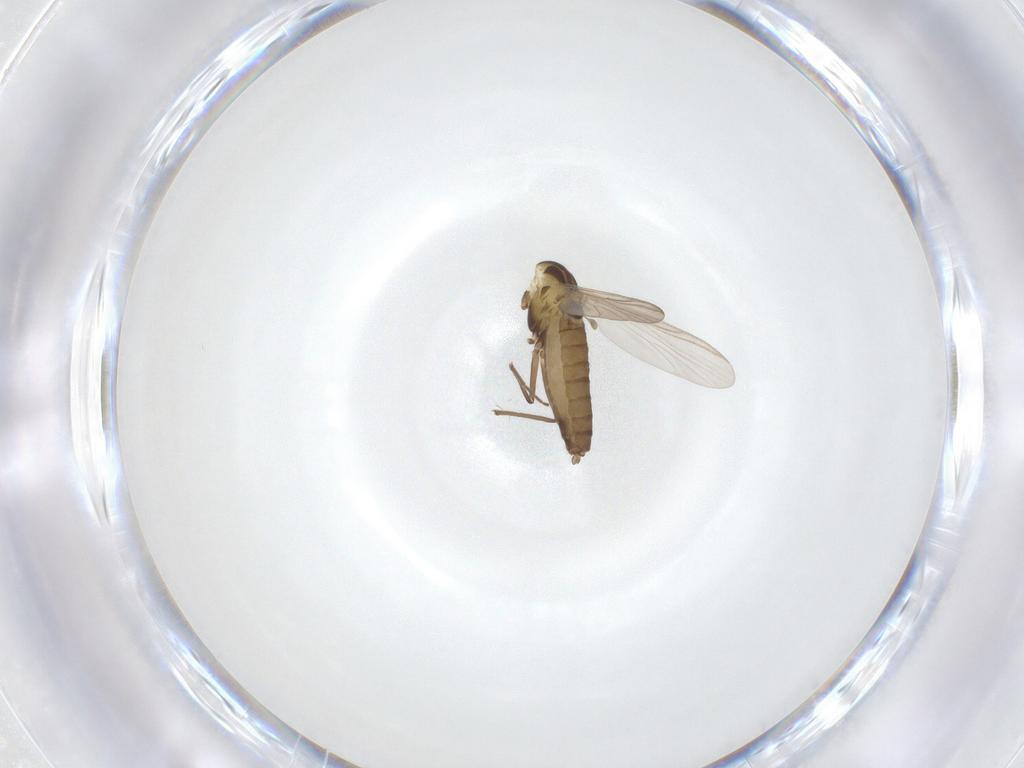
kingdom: Animalia
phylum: Arthropoda
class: Insecta
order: Diptera
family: Chironomidae
